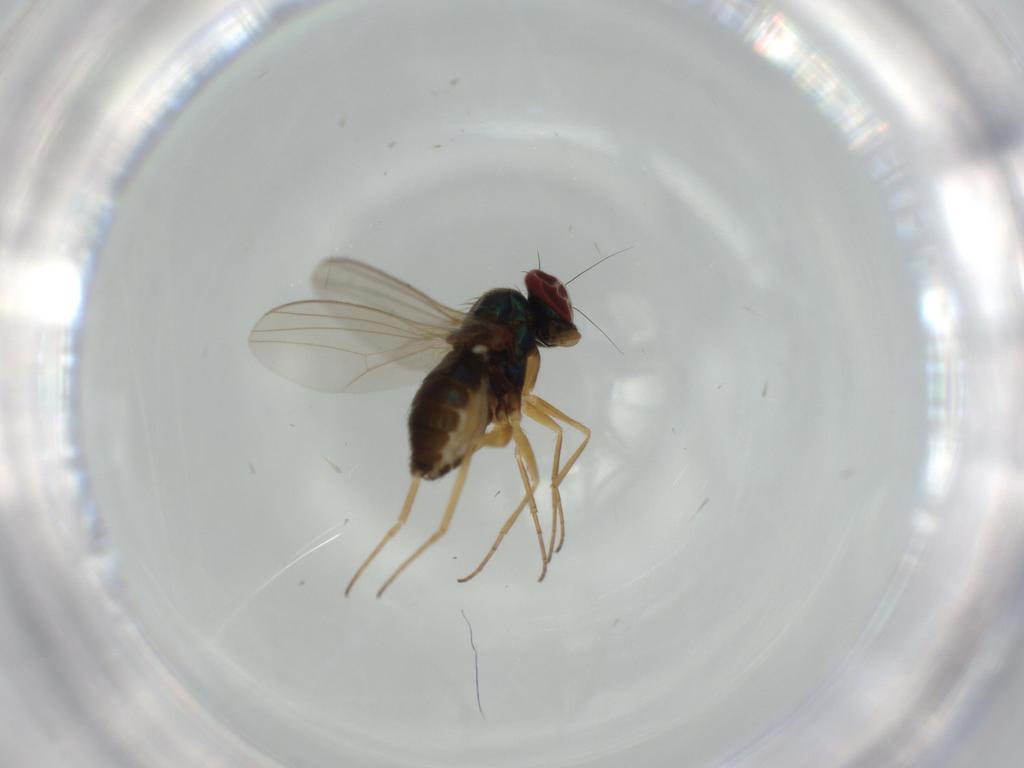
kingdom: Animalia
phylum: Arthropoda
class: Insecta
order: Diptera
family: Dolichopodidae
